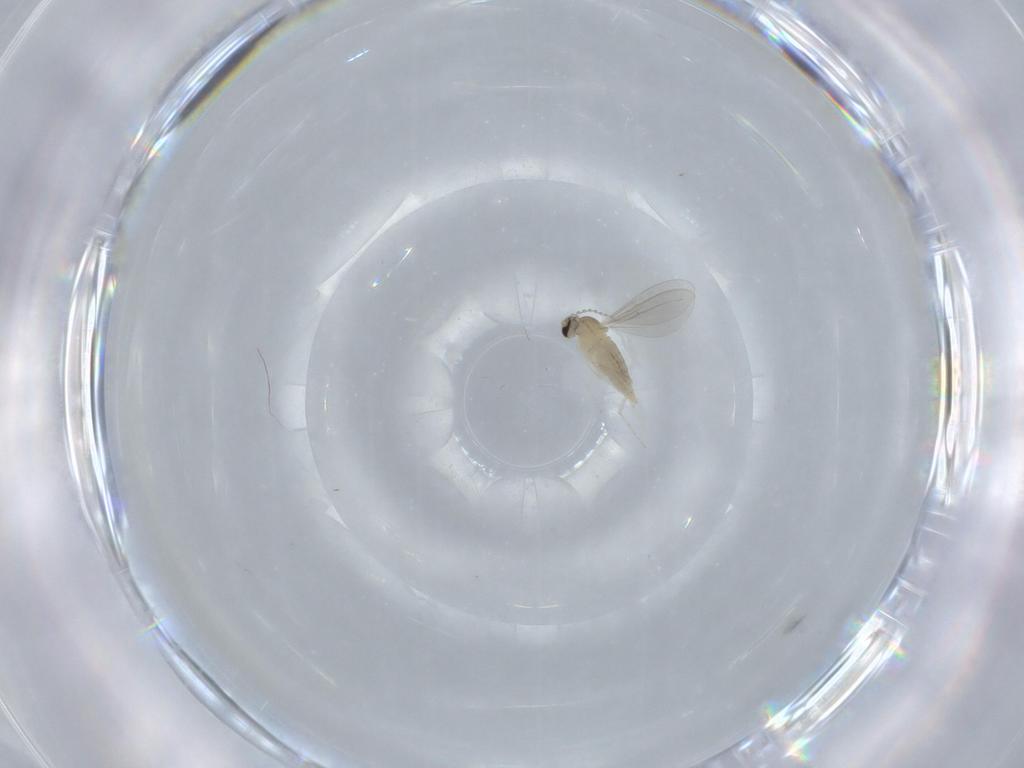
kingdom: Animalia
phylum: Arthropoda
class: Insecta
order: Diptera
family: Cecidomyiidae
